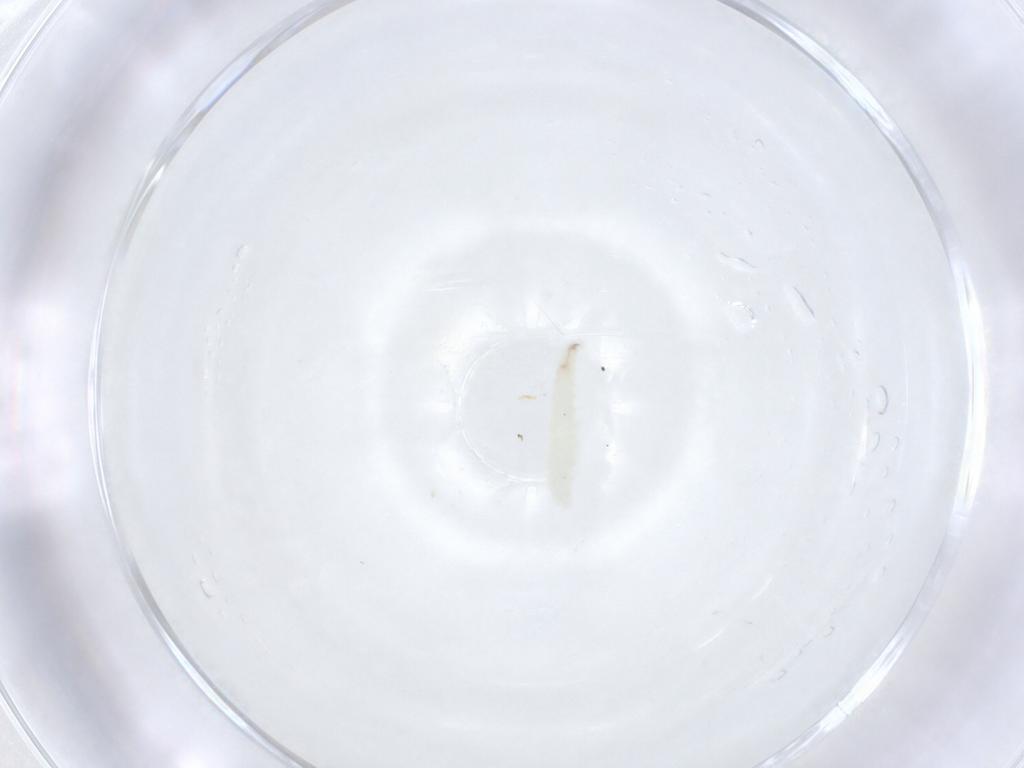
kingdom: Animalia
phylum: Arthropoda
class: Insecta
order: Diptera
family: Sarcophagidae
